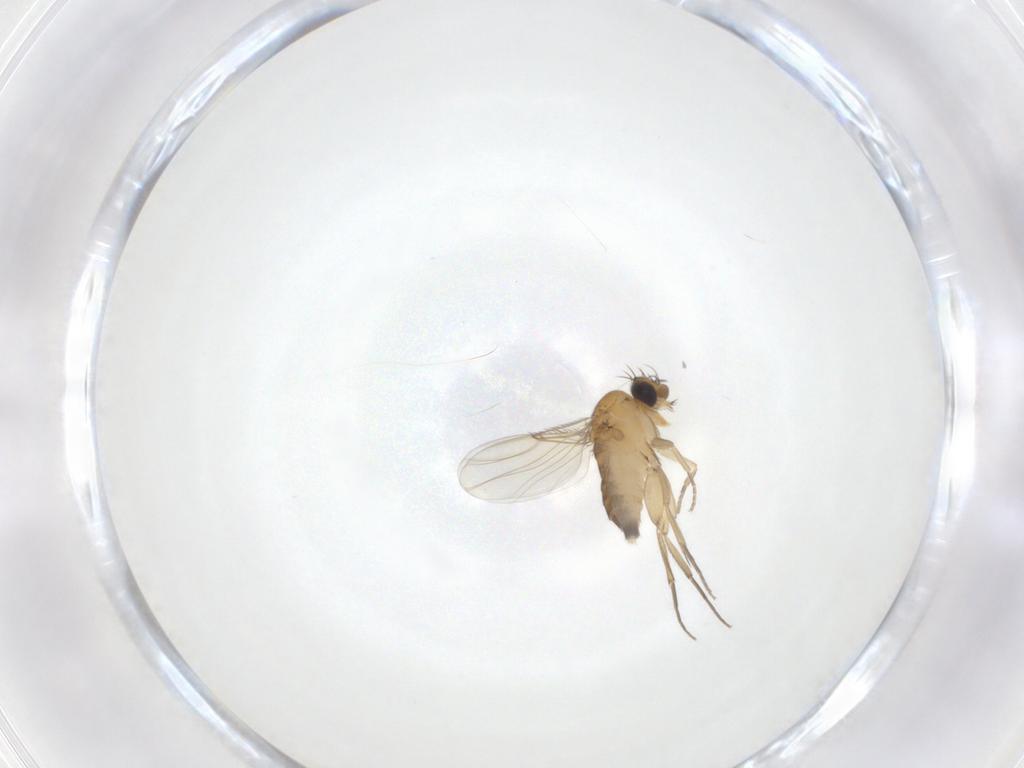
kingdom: Animalia
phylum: Arthropoda
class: Insecta
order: Diptera
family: Phoridae
